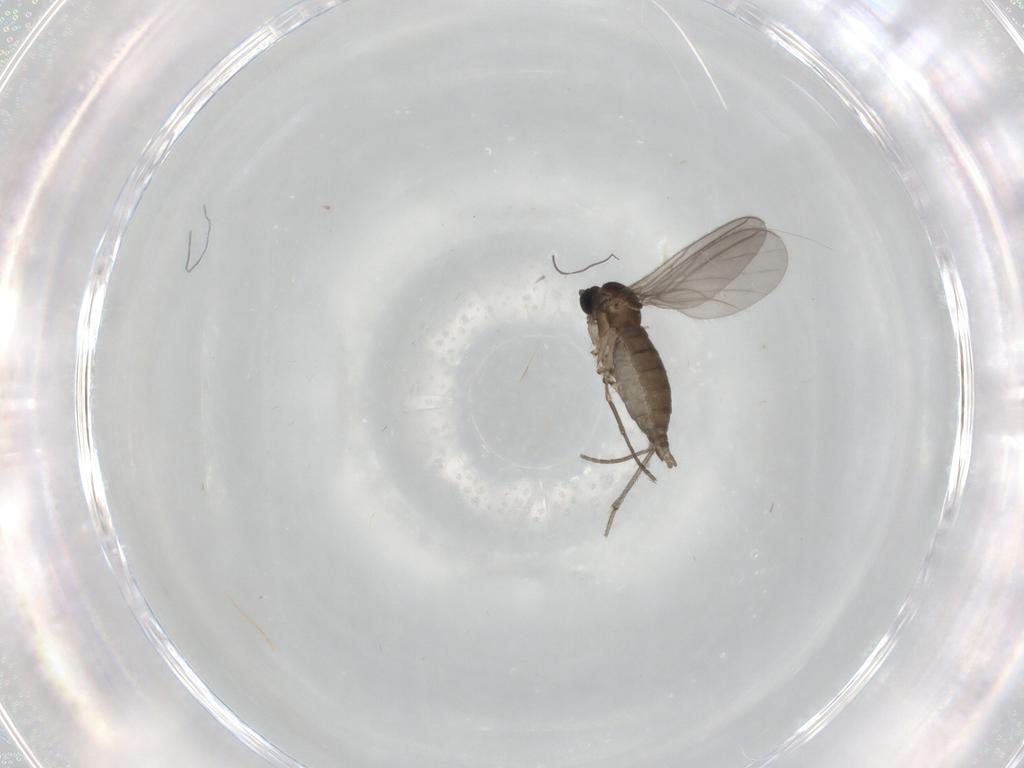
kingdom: Animalia
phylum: Arthropoda
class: Insecta
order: Diptera
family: Sciaridae
